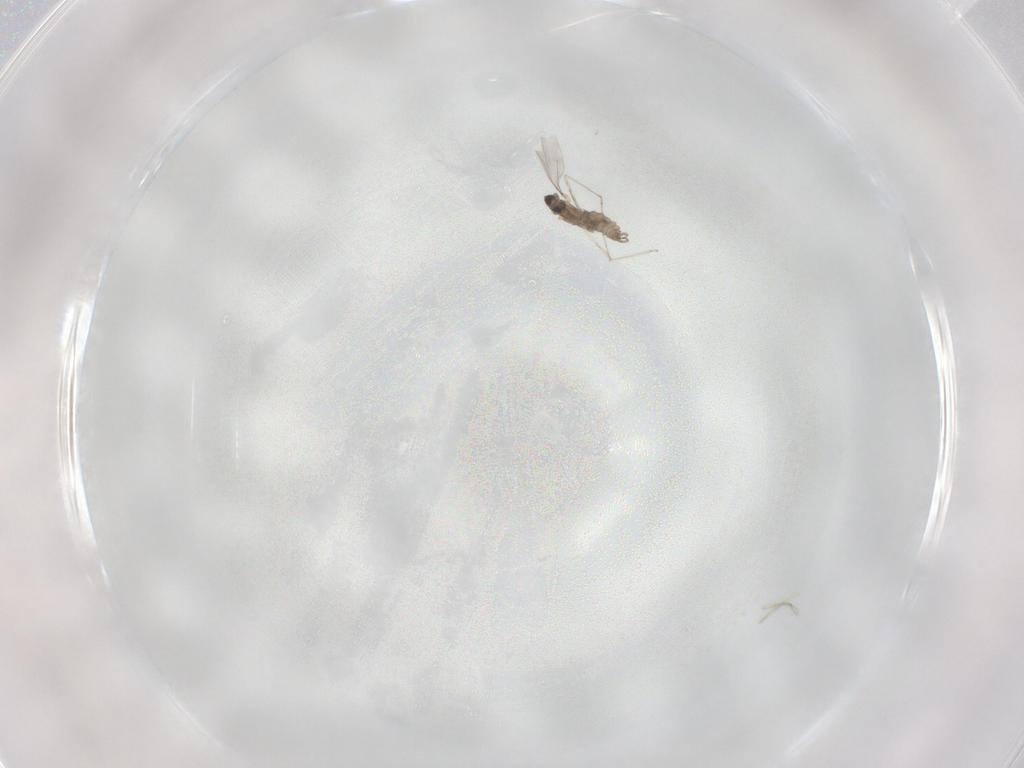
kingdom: Animalia
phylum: Arthropoda
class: Insecta
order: Diptera
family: Cecidomyiidae
